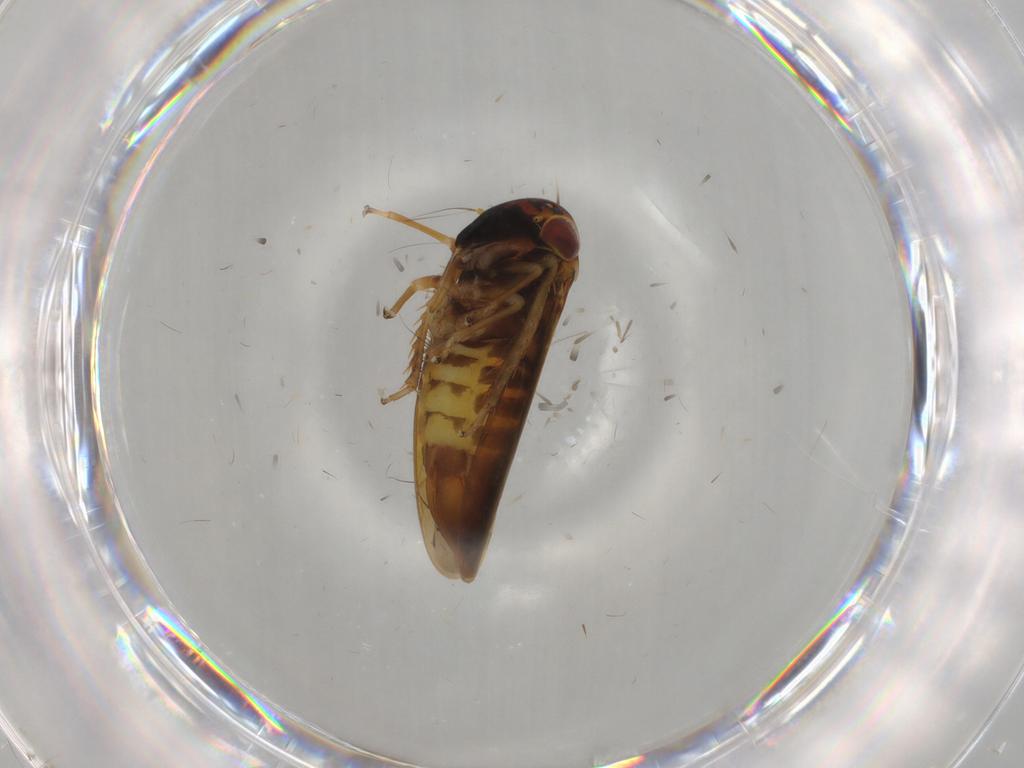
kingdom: Animalia
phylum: Arthropoda
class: Insecta
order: Hemiptera
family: Cicadellidae
